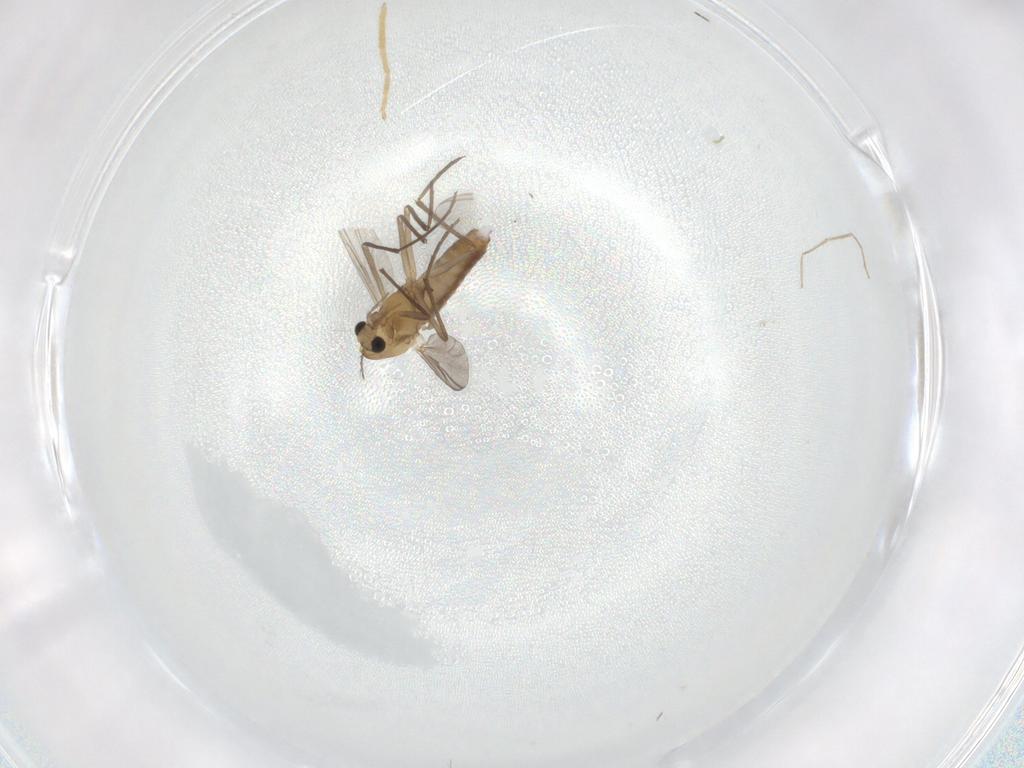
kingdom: Animalia
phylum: Arthropoda
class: Insecta
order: Diptera
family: Chironomidae
